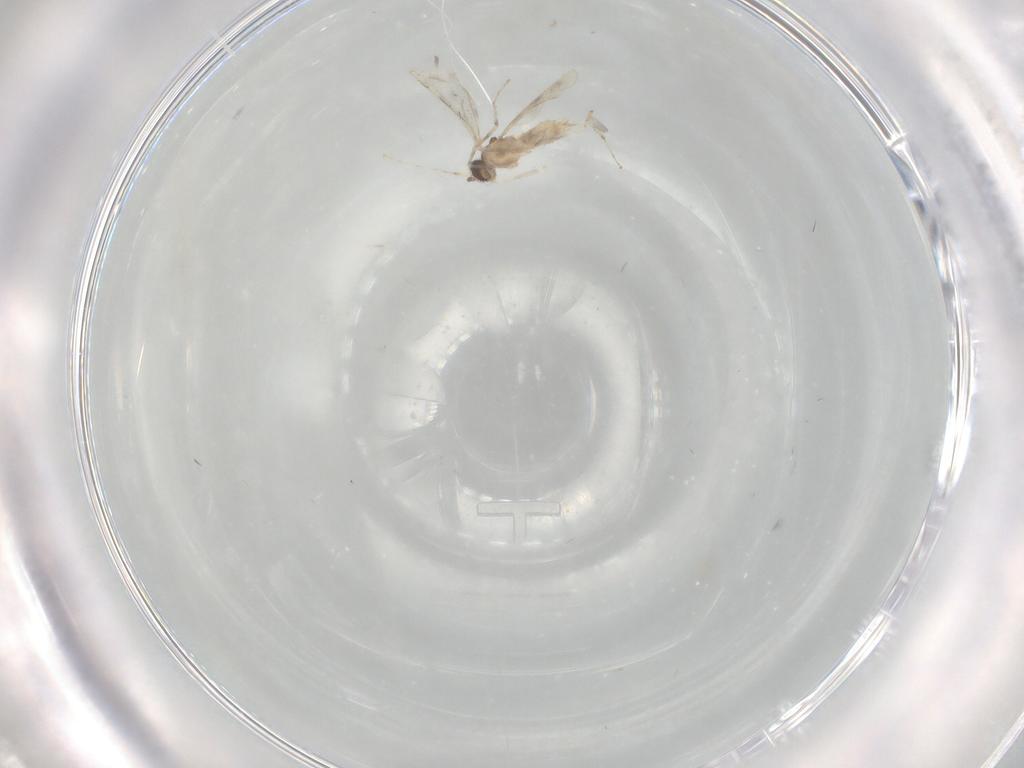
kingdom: Animalia
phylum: Arthropoda
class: Insecta
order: Diptera
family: Cecidomyiidae
